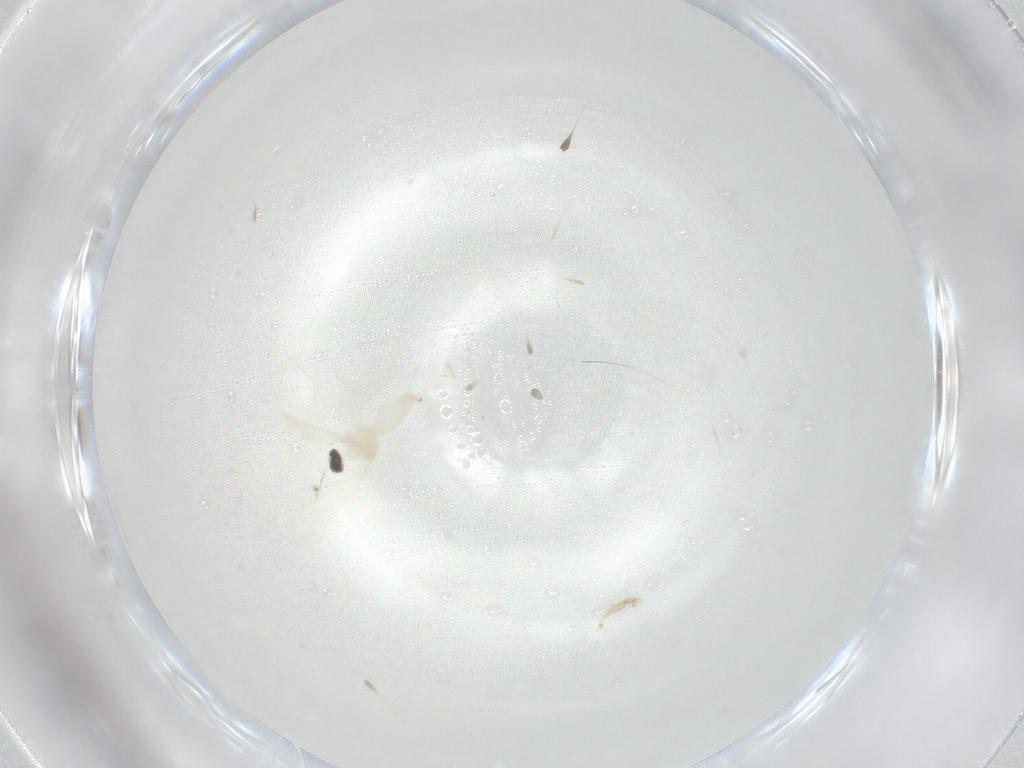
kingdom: Animalia
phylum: Arthropoda
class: Insecta
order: Diptera
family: Cecidomyiidae
